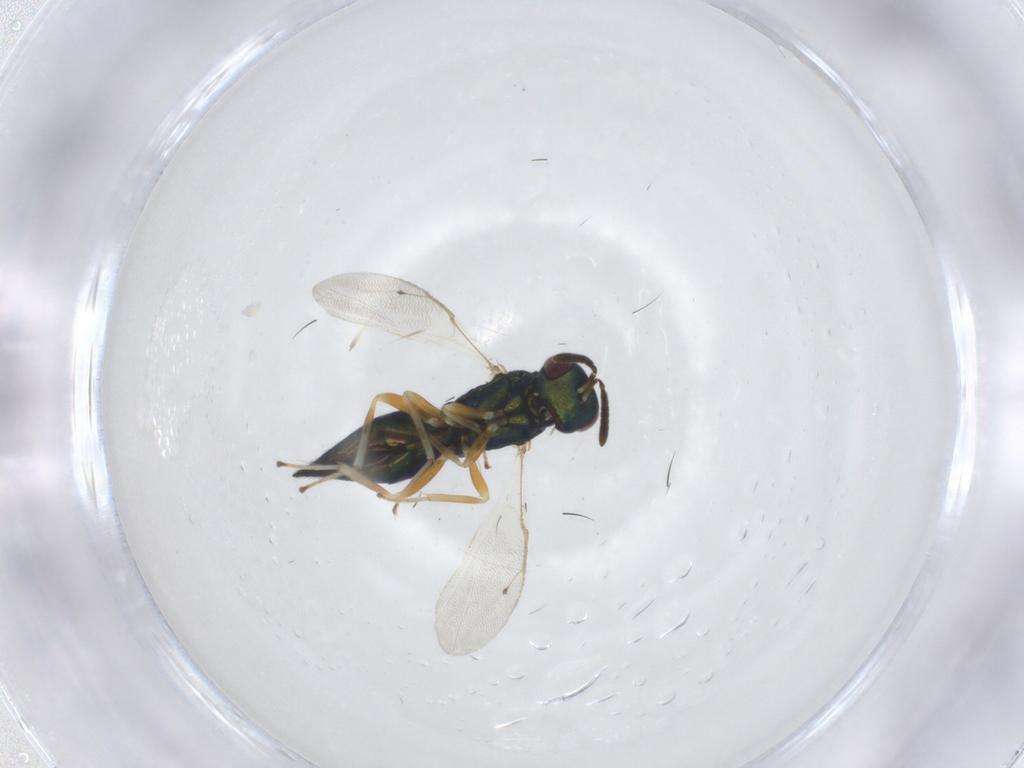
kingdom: Animalia
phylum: Arthropoda
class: Insecta
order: Hymenoptera
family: Pteromalidae
